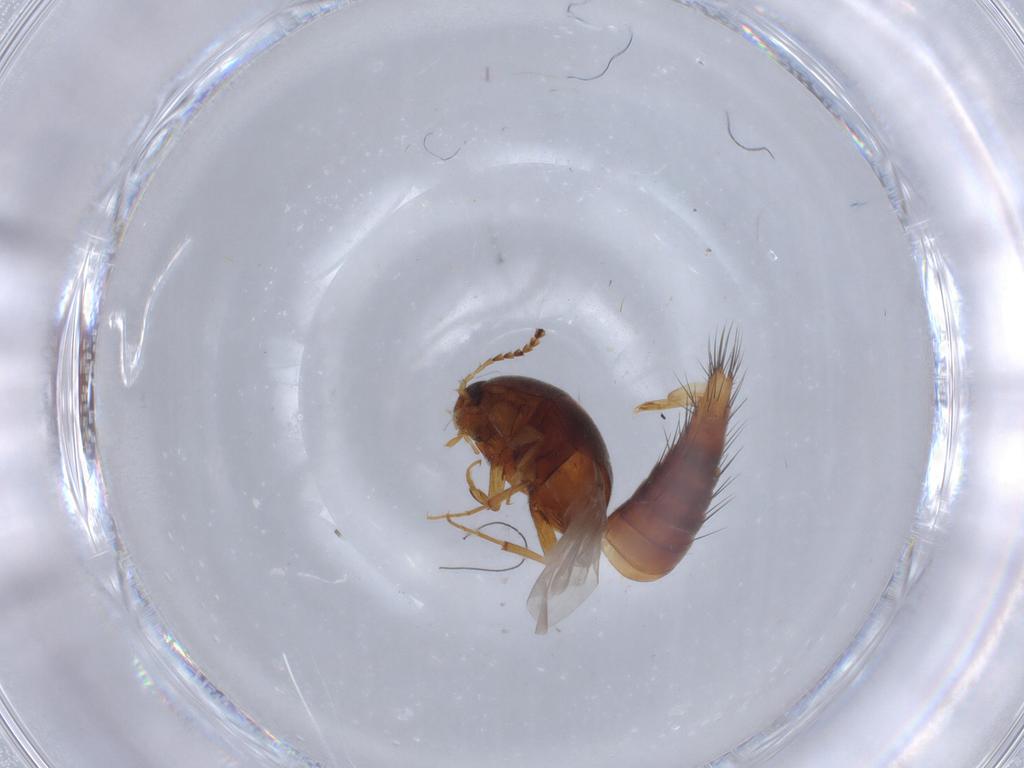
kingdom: Animalia
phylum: Arthropoda
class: Insecta
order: Coleoptera
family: Staphylinidae
